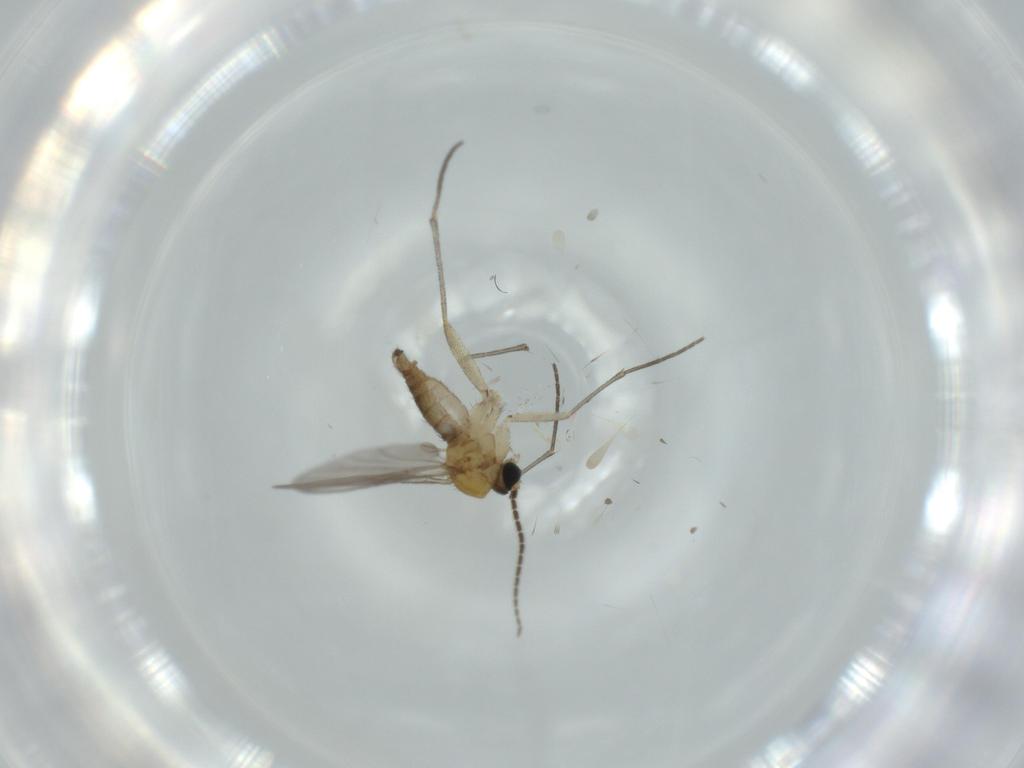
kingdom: Animalia
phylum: Arthropoda
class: Insecta
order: Diptera
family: Sciaridae
